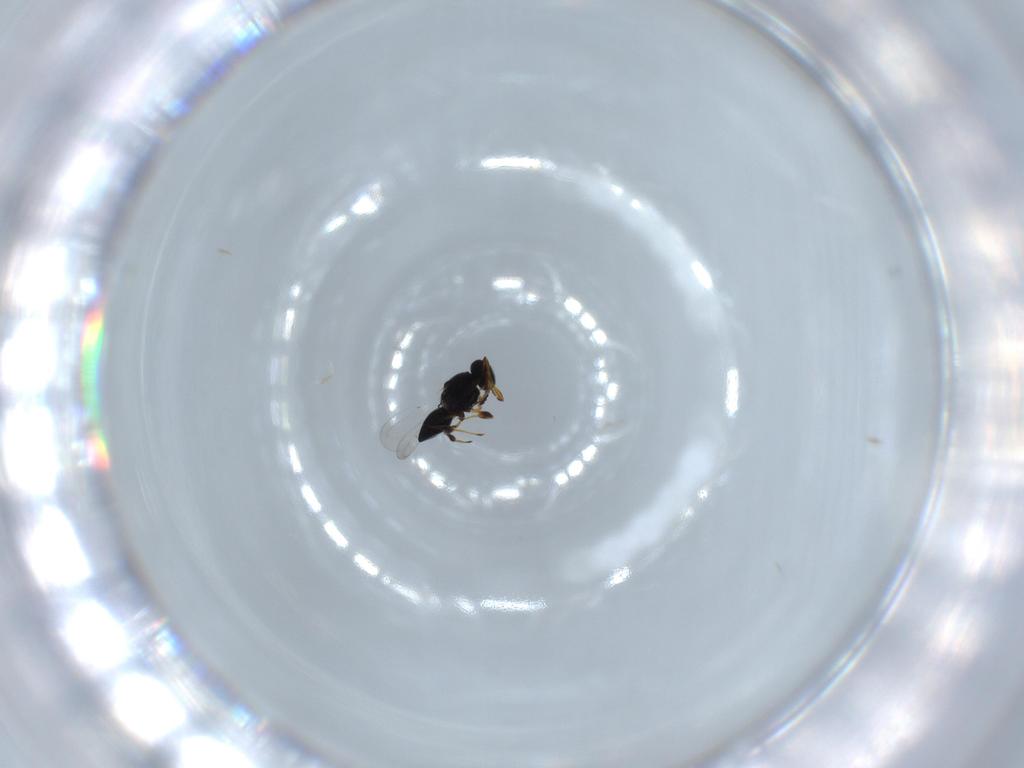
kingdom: Animalia
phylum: Arthropoda
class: Insecta
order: Hymenoptera
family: Platygastridae
